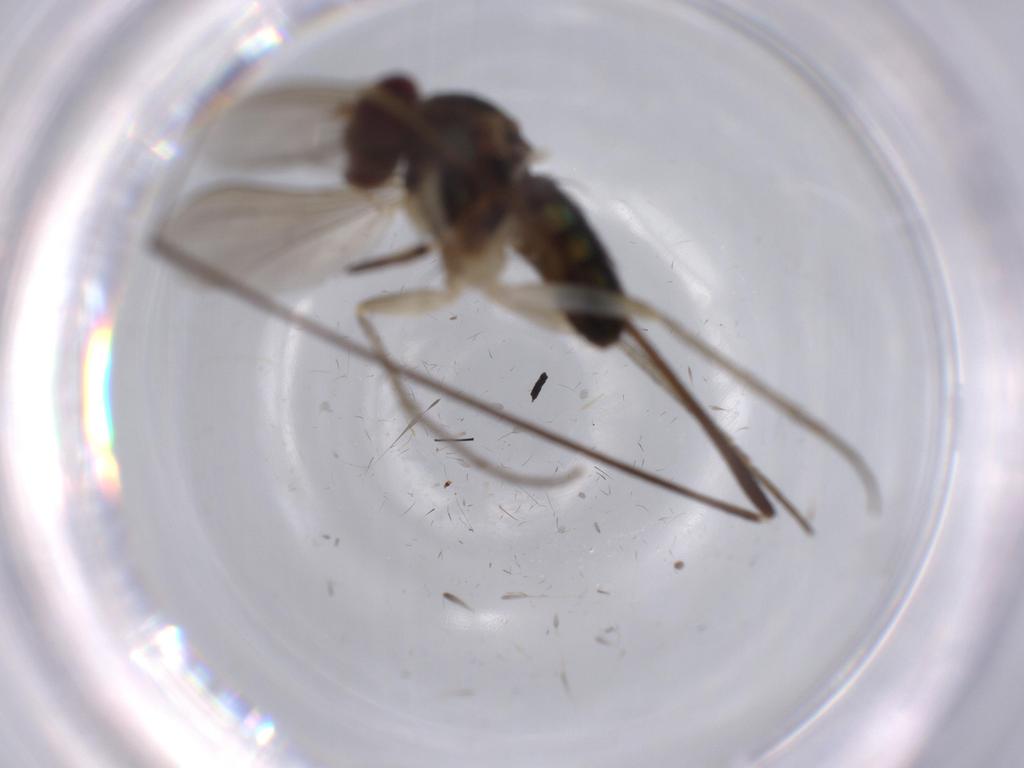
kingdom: Animalia
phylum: Arthropoda
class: Insecta
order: Diptera
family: Dolichopodidae
